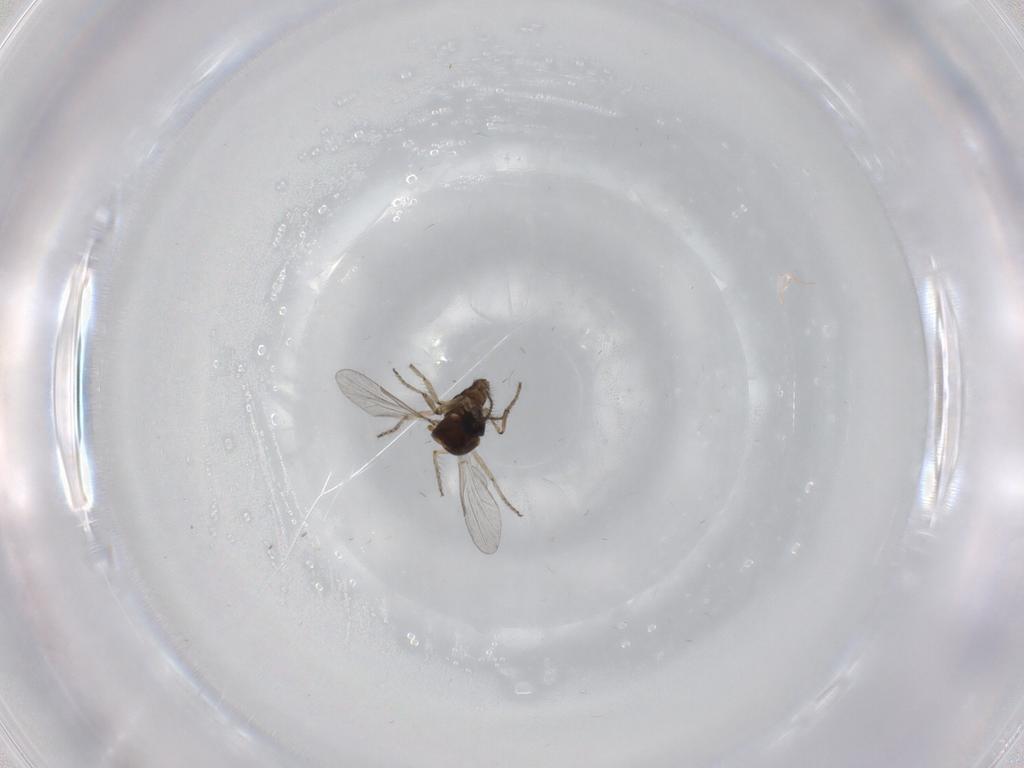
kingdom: Animalia
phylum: Arthropoda
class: Insecta
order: Diptera
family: Ceratopogonidae
